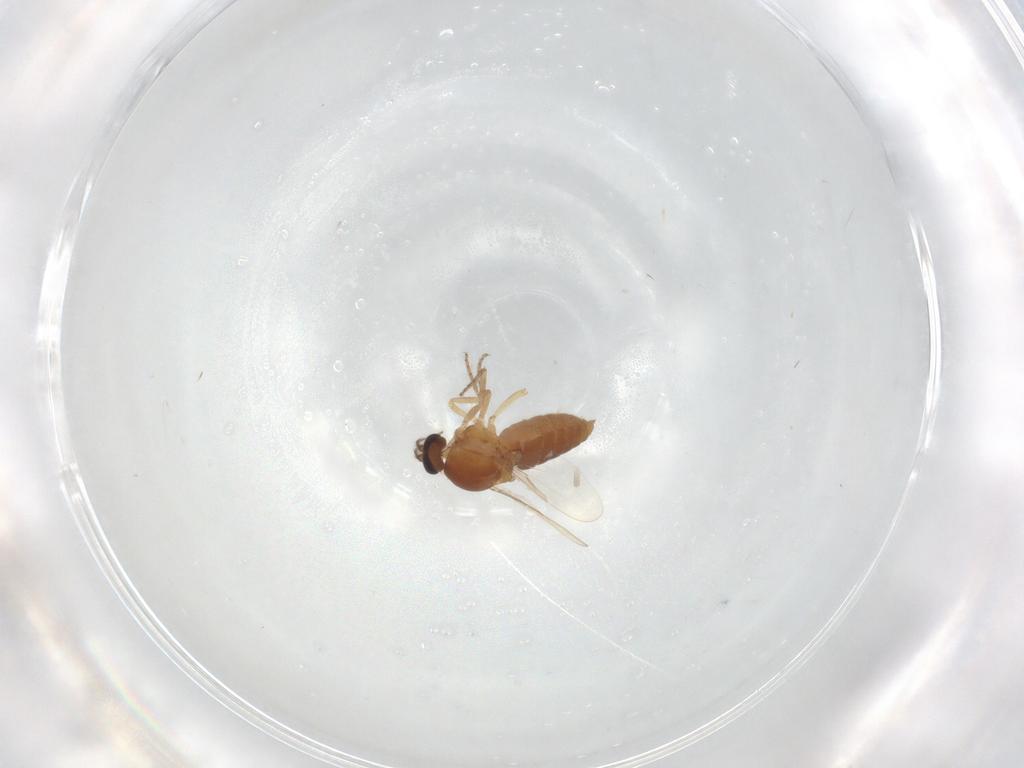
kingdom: Animalia
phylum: Arthropoda
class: Insecta
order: Diptera
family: Ceratopogonidae
